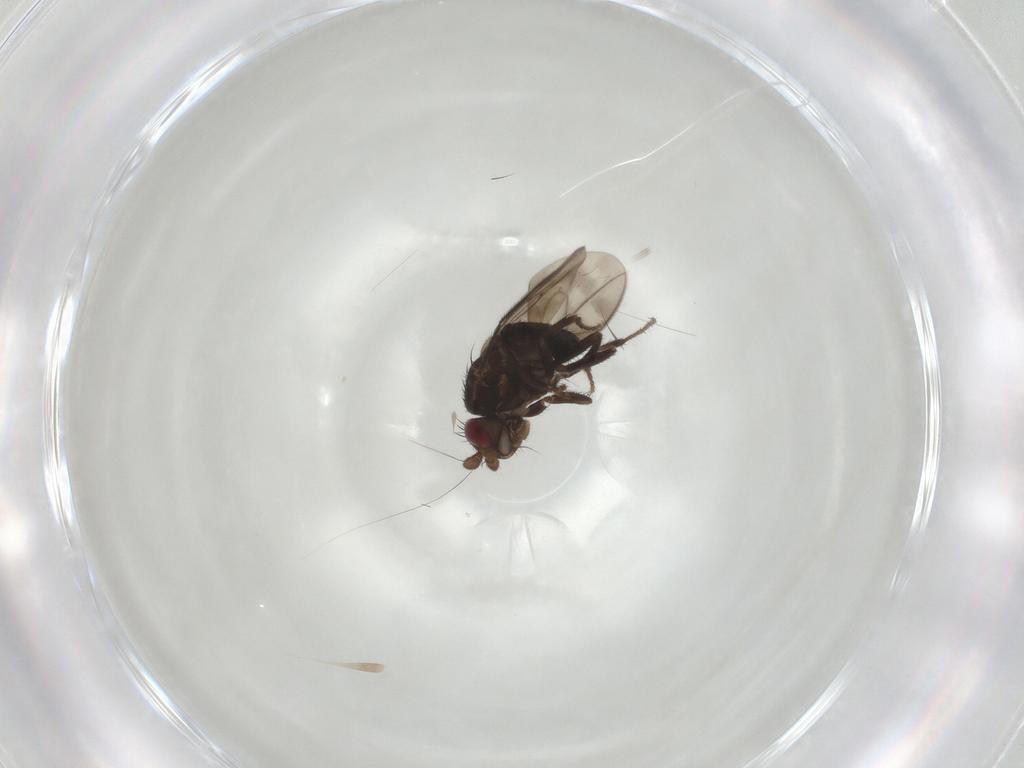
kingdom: Animalia
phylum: Arthropoda
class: Insecta
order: Diptera
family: Sphaeroceridae
